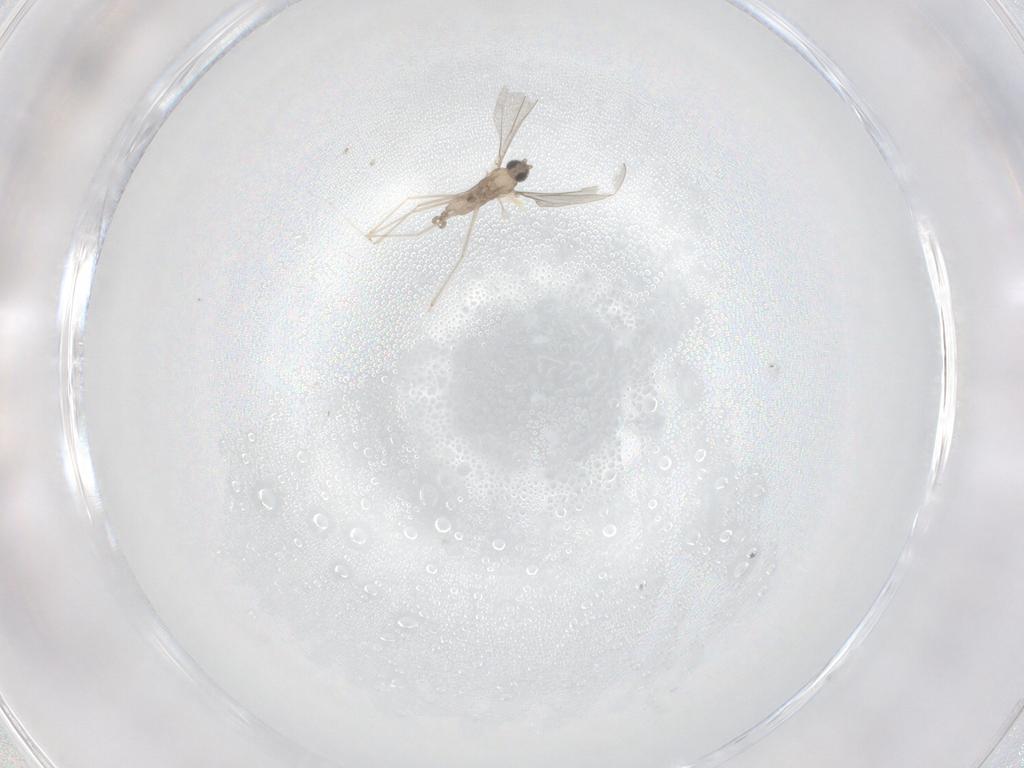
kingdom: Animalia
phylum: Arthropoda
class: Insecta
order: Diptera
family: Cecidomyiidae
